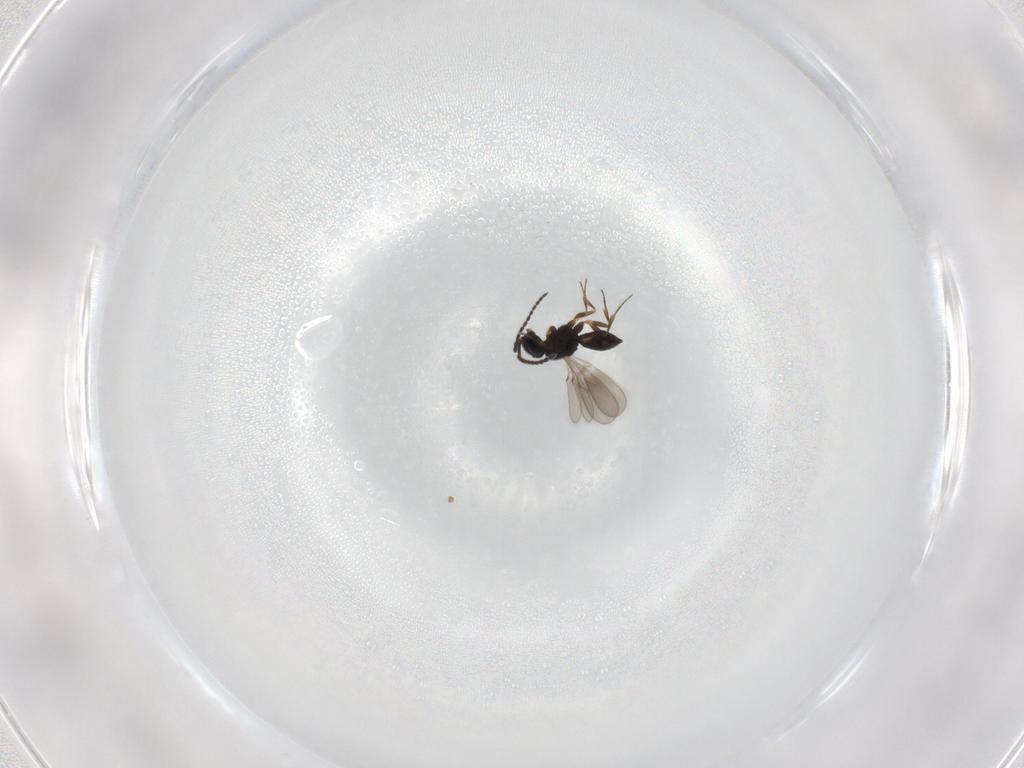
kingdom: Animalia
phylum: Arthropoda
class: Insecta
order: Hymenoptera
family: Scelionidae
